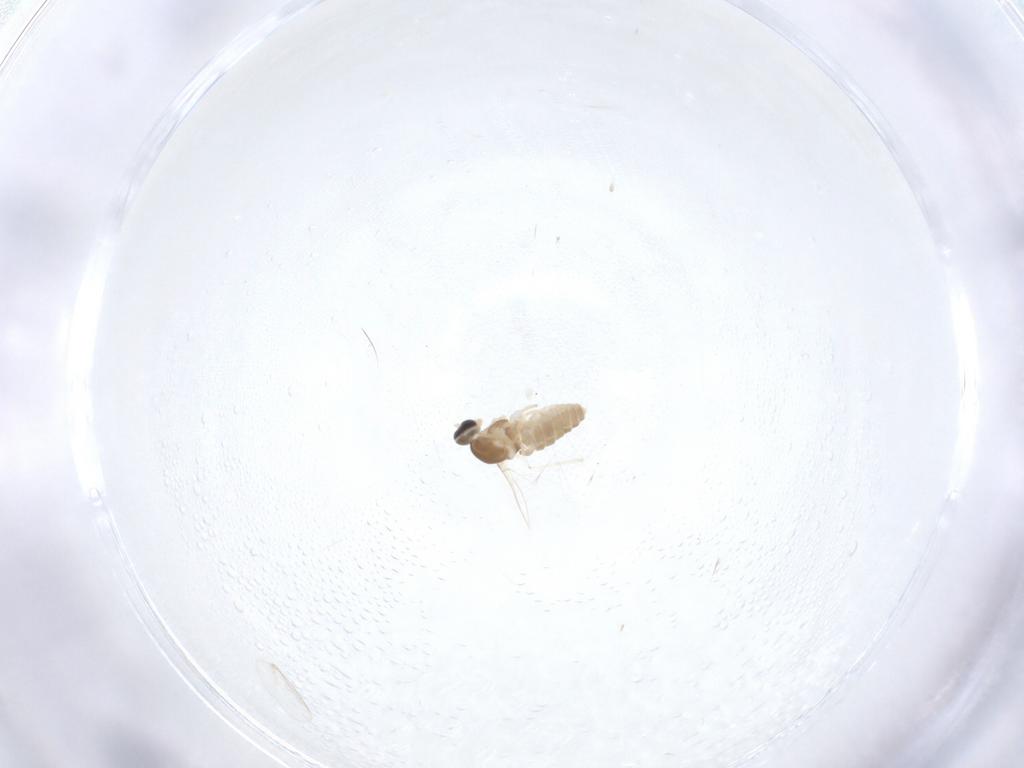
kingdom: Animalia
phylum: Arthropoda
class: Insecta
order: Diptera
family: Cecidomyiidae
